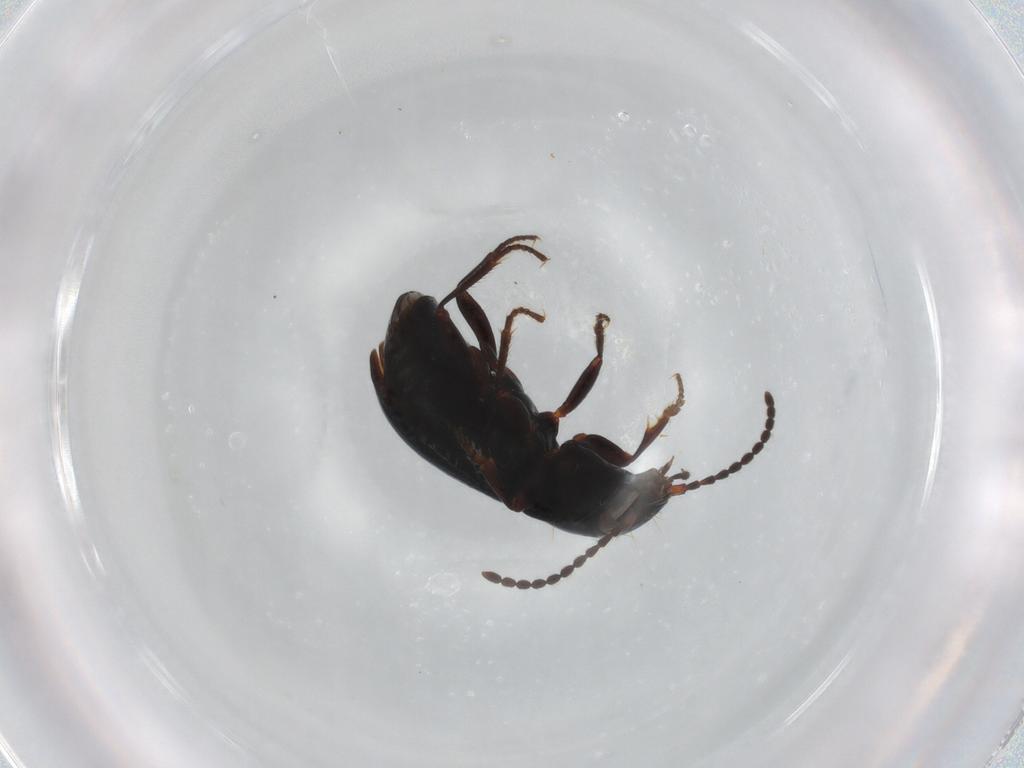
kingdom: Animalia
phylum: Arthropoda
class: Insecta
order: Coleoptera
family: Carabidae
